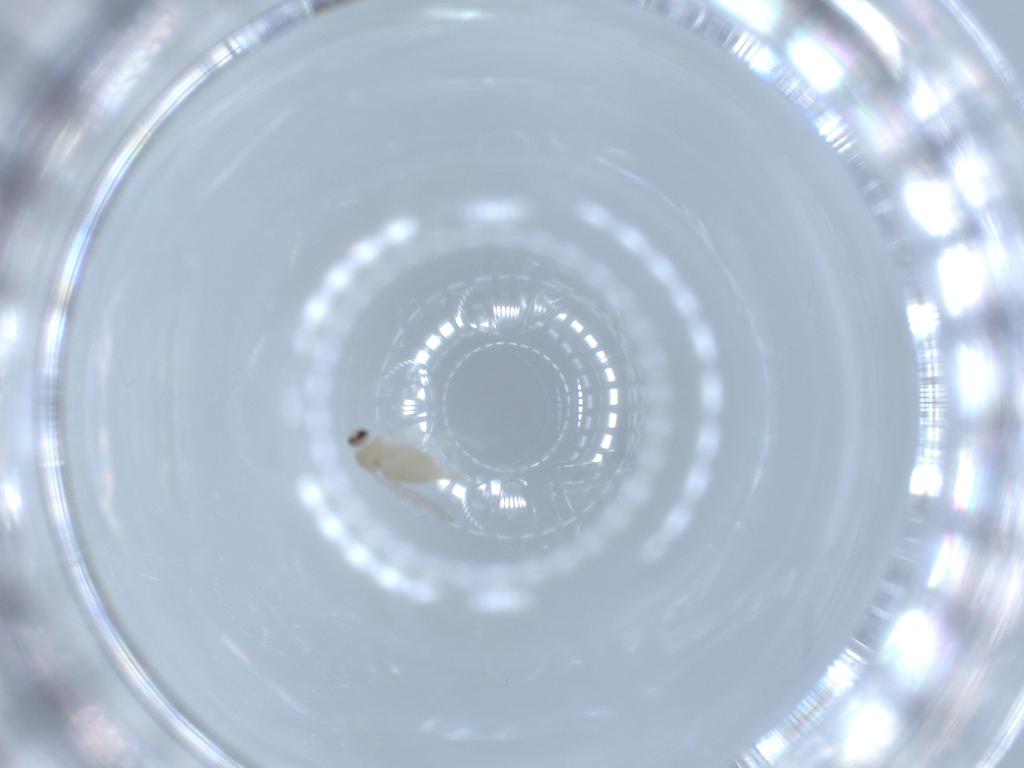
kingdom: Animalia
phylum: Arthropoda
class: Insecta
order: Diptera
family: Cecidomyiidae
